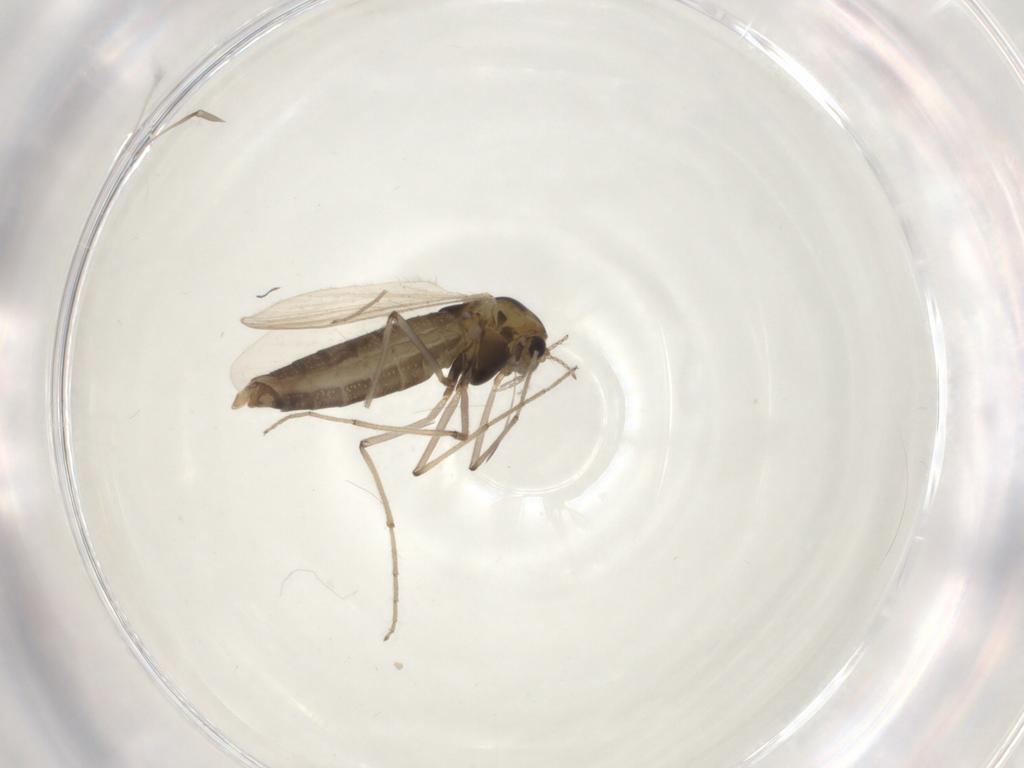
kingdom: Animalia
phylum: Arthropoda
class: Insecta
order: Diptera
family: Chironomidae
